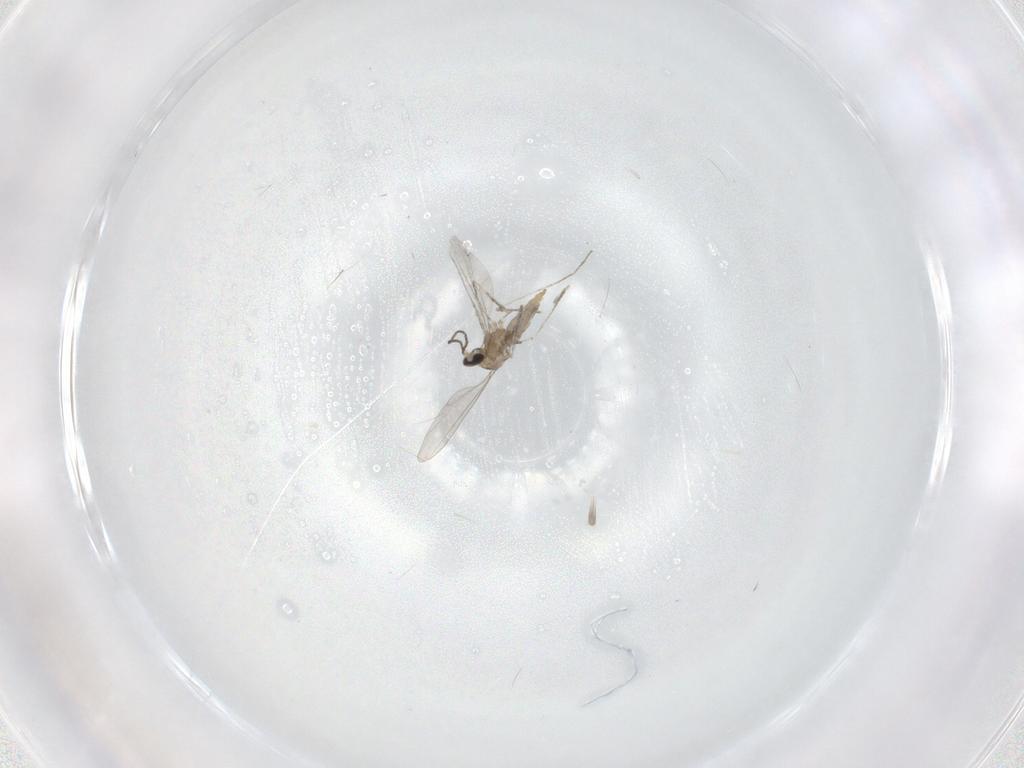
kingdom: Animalia
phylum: Arthropoda
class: Insecta
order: Diptera
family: Cecidomyiidae
